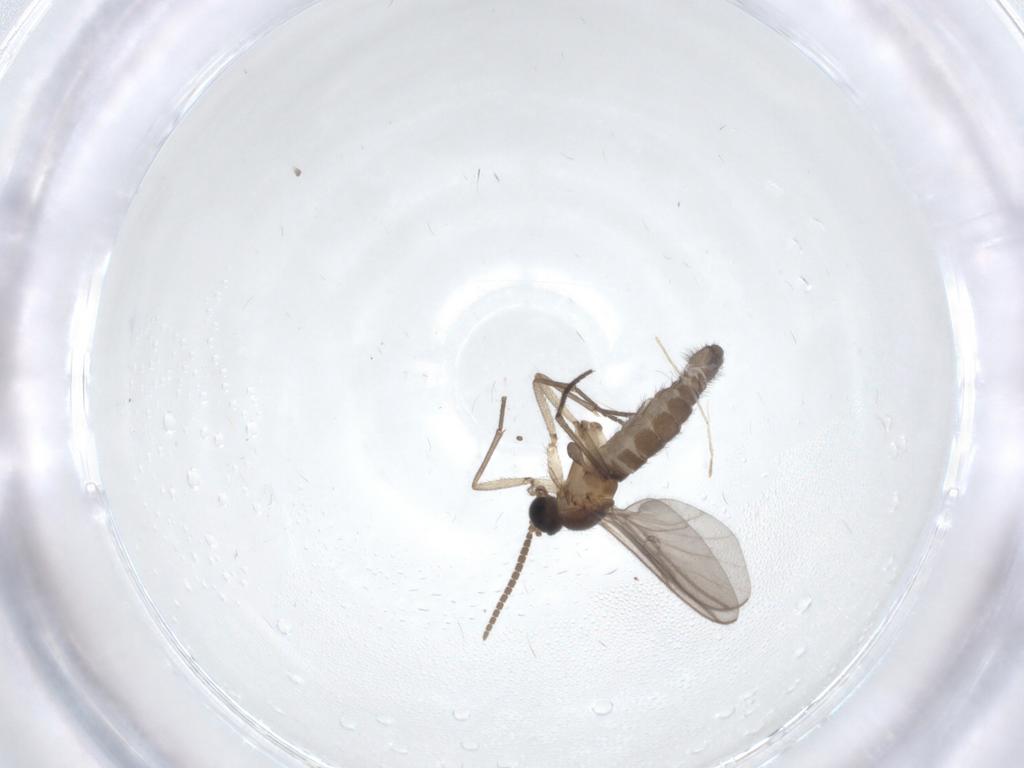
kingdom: Animalia
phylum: Arthropoda
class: Insecta
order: Diptera
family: Cecidomyiidae
